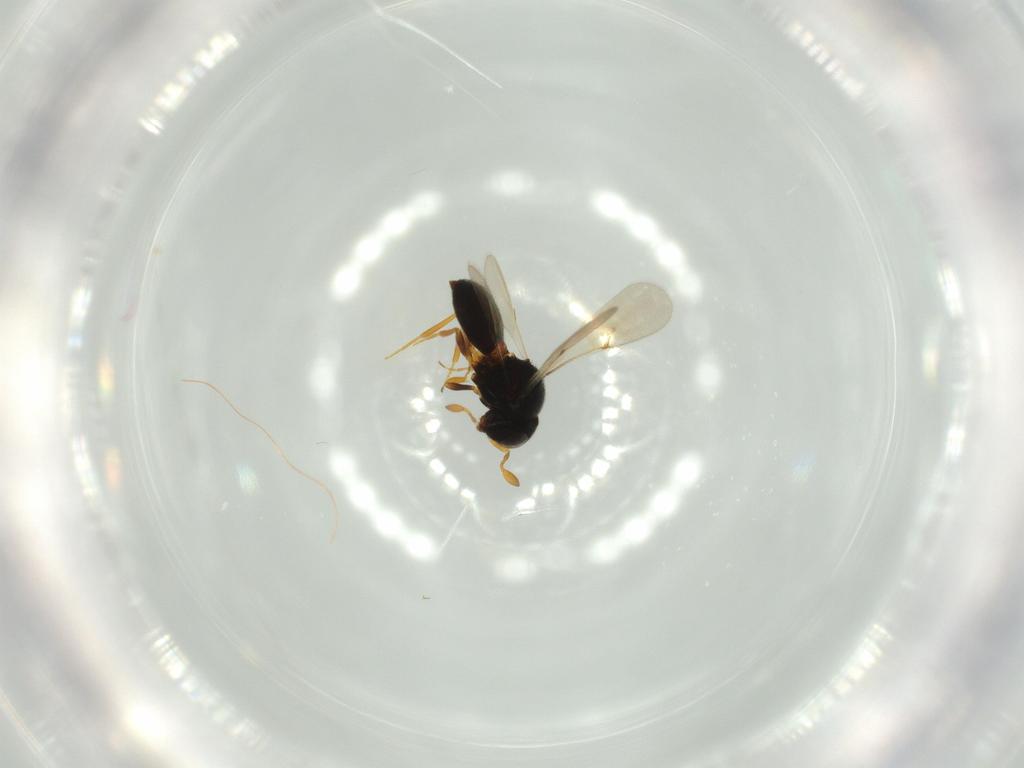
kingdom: Animalia
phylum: Arthropoda
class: Insecta
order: Hymenoptera
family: Scelionidae
